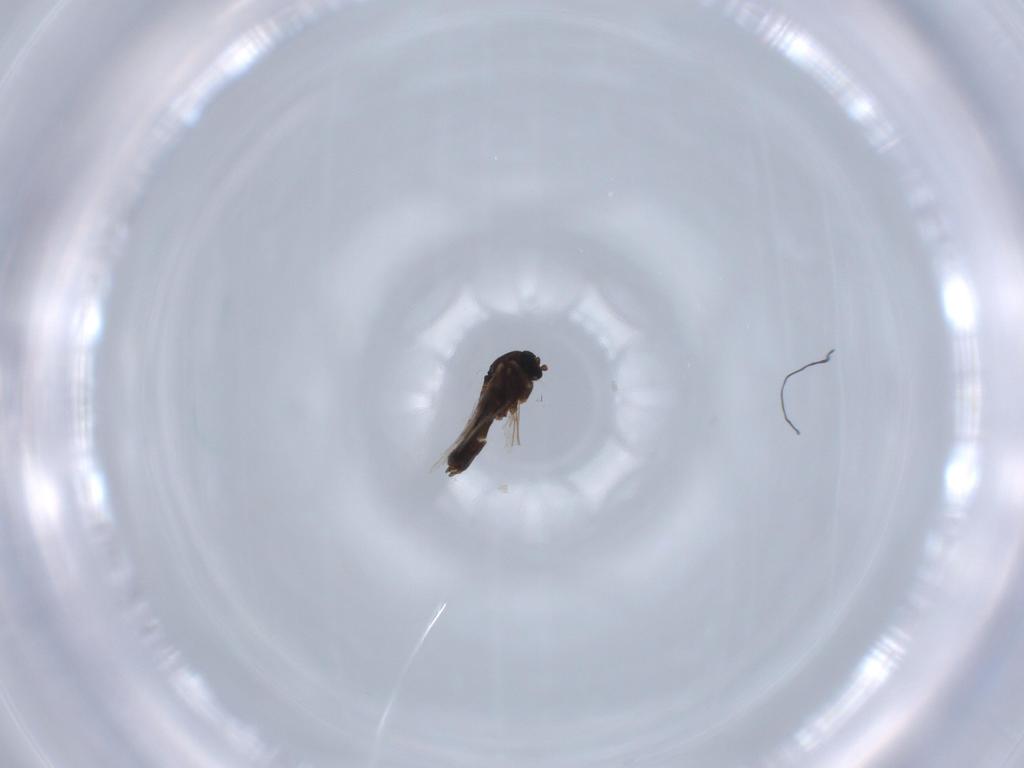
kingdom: Animalia
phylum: Arthropoda
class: Insecta
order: Diptera
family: Hybotidae
